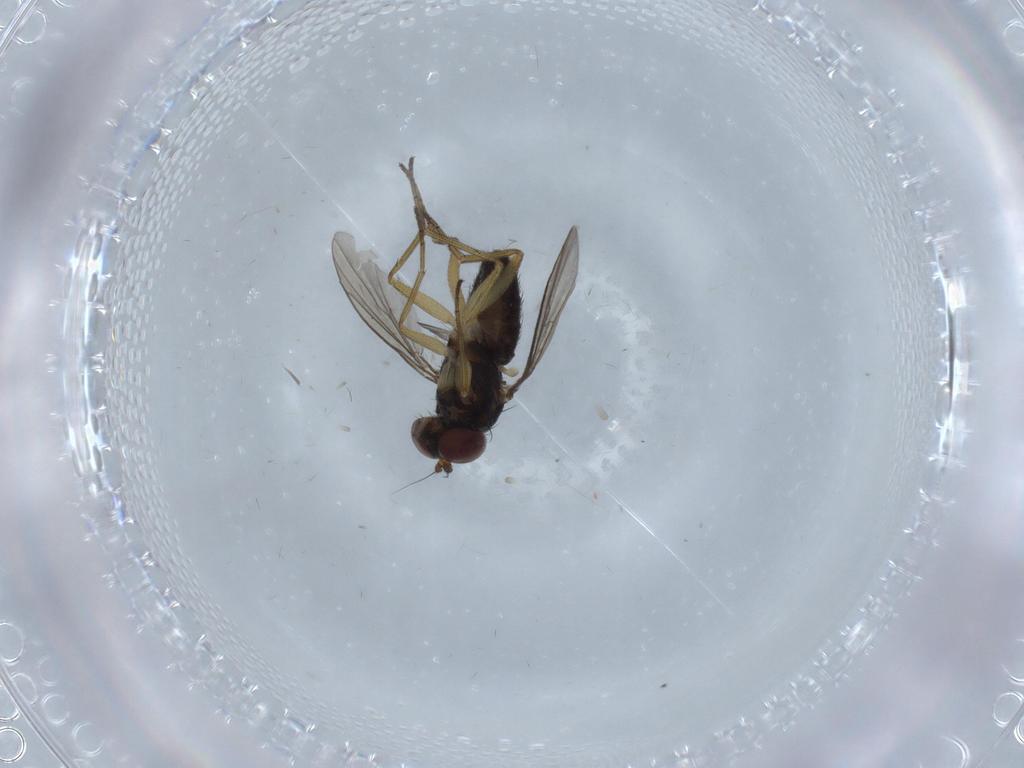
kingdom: Animalia
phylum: Arthropoda
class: Insecta
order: Diptera
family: Dolichopodidae
